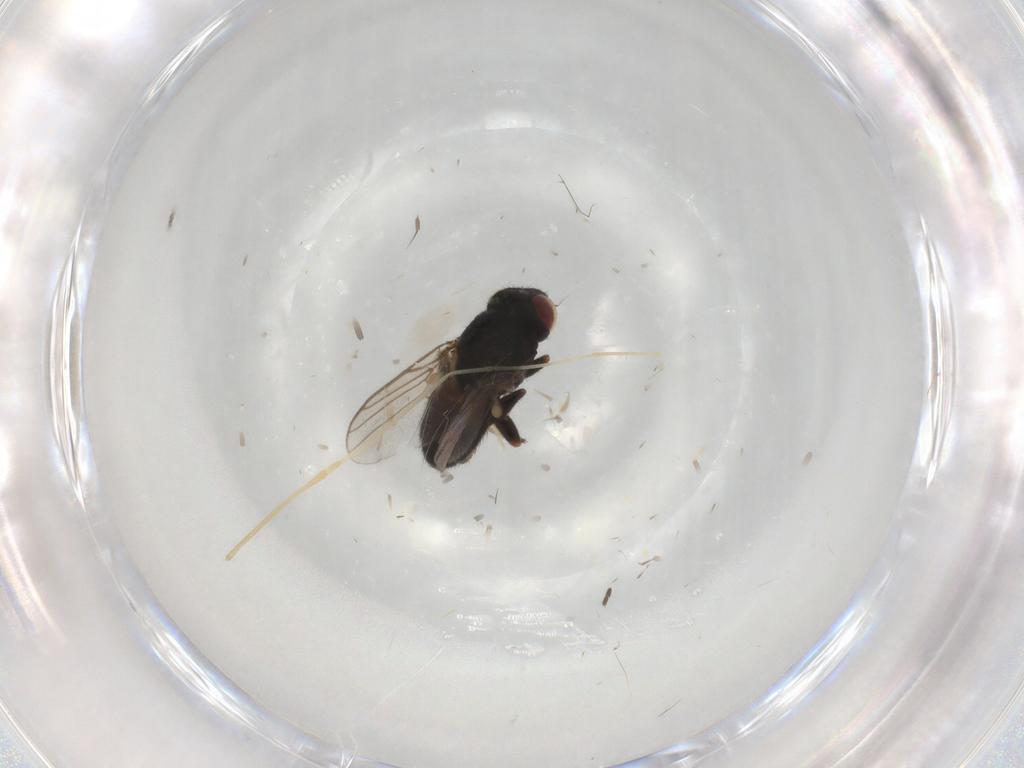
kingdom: Animalia
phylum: Arthropoda
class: Insecta
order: Diptera
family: Chloropidae
